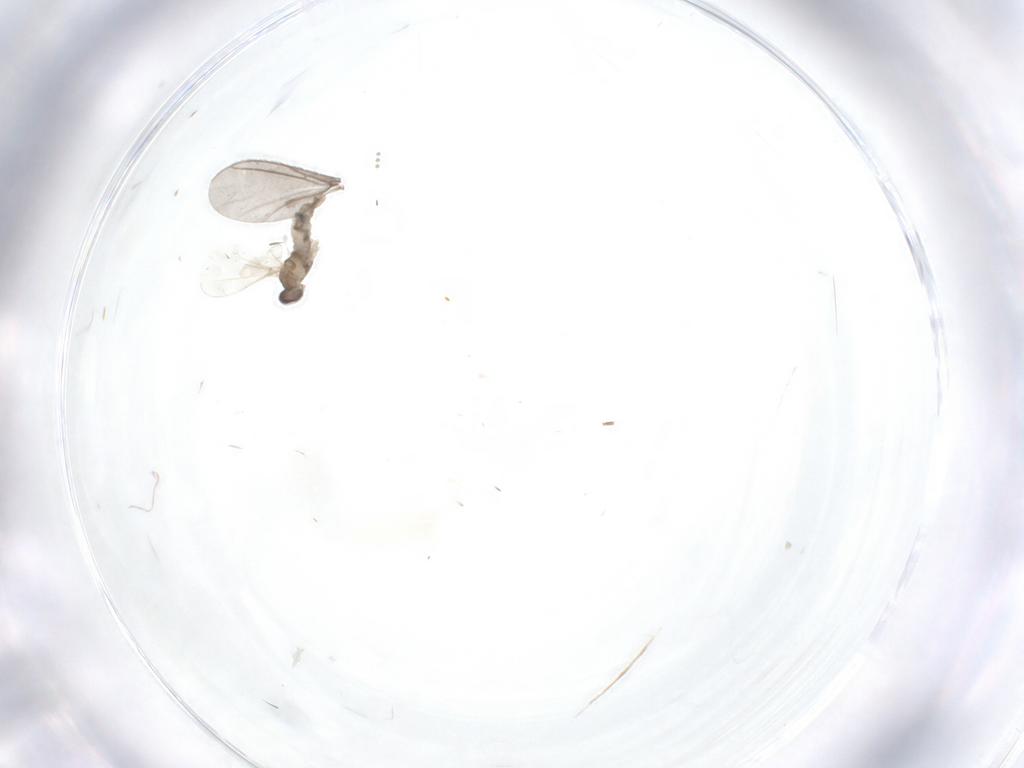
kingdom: Animalia
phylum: Arthropoda
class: Insecta
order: Diptera
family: Cecidomyiidae
